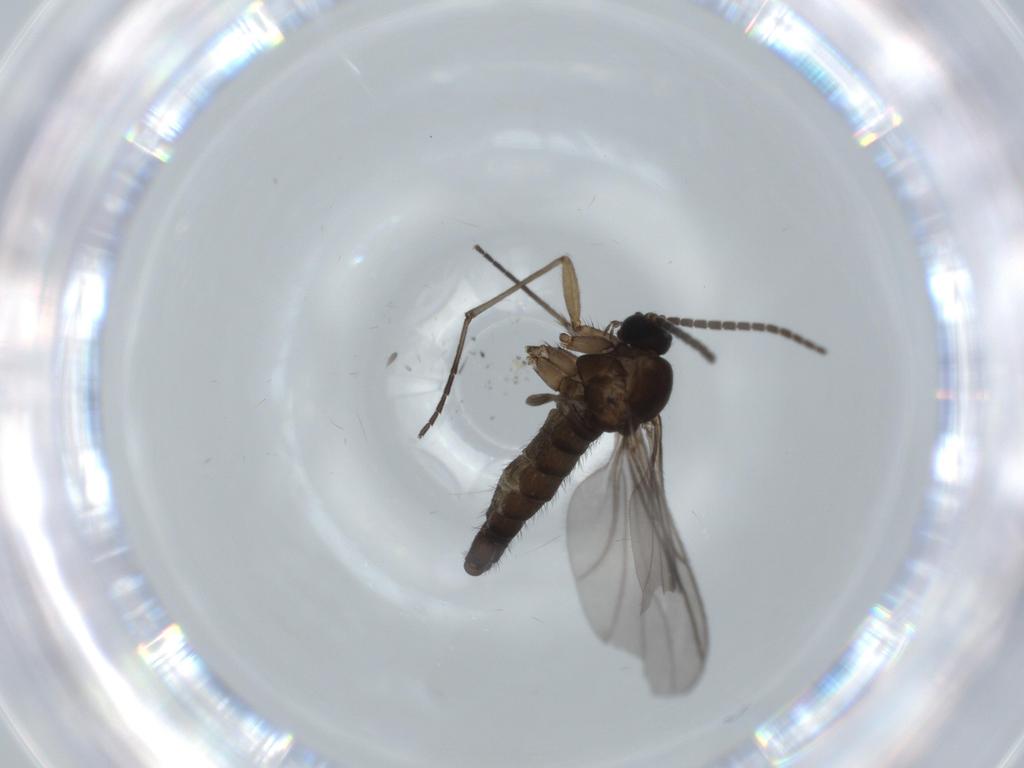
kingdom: Animalia
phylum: Arthropoda
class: Insecta
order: Diptera
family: Sciaridae
